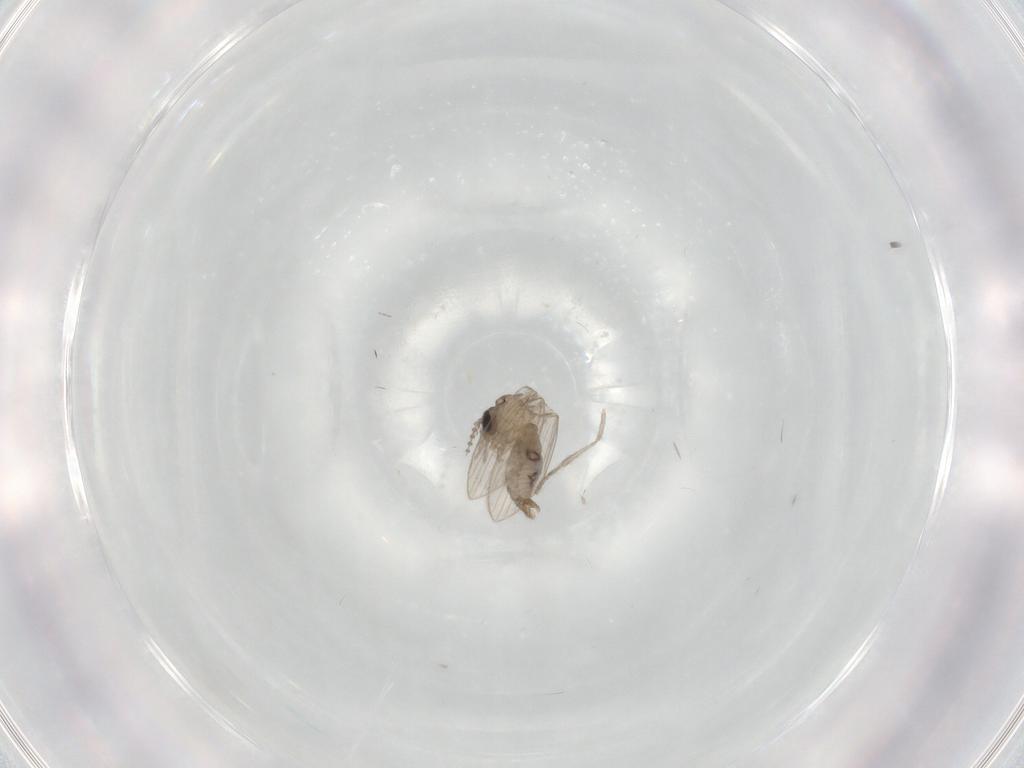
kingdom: Animalia
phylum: Arthropoda
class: Insecta
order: Diptera
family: Psychodidae
